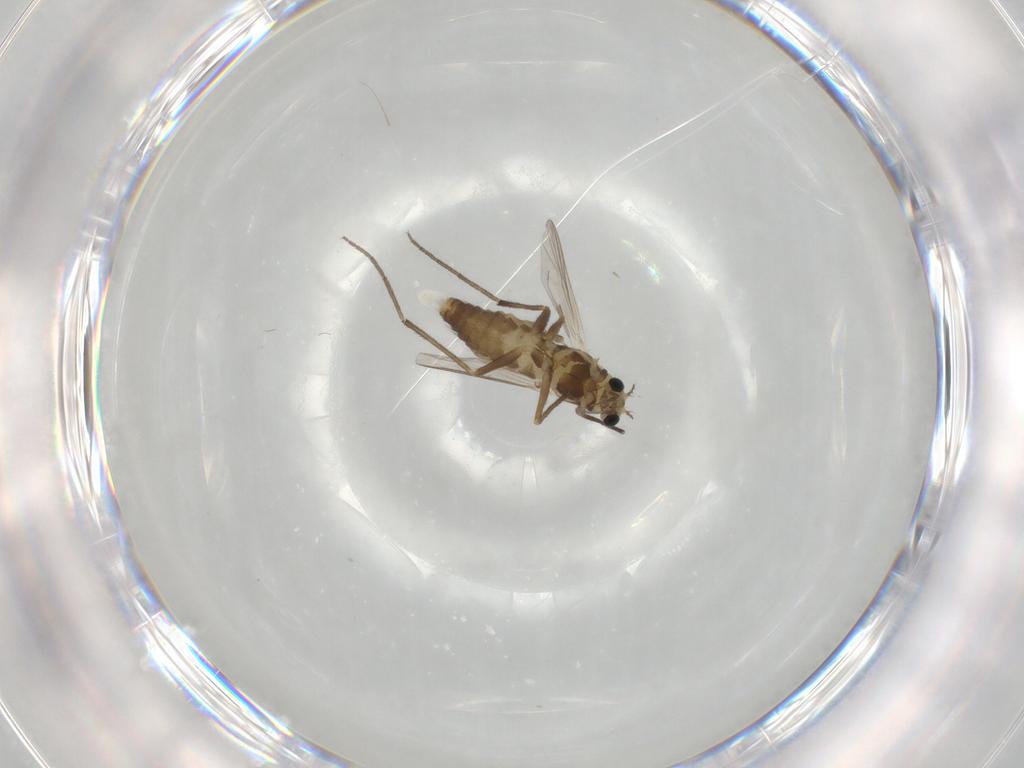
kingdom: Animalia
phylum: Arthropoda
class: Insecta
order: Diptera
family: Chironomidae
